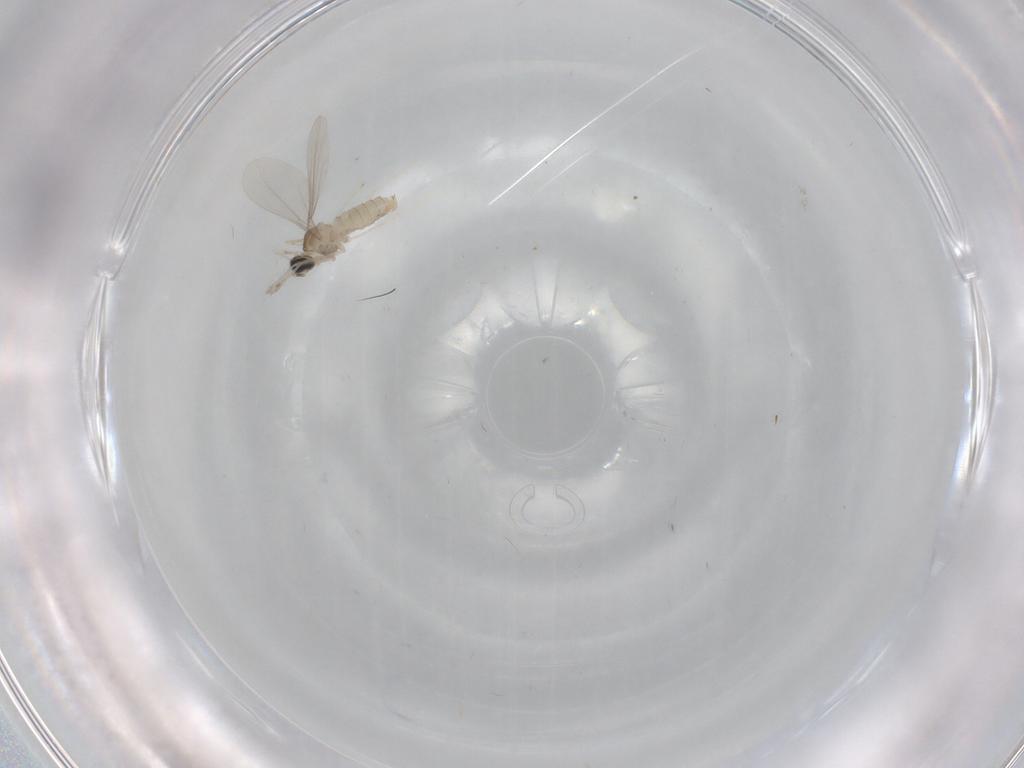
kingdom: Animalia
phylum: Arthropoda
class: Insecta
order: Diptera
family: Cecidomyiidae
